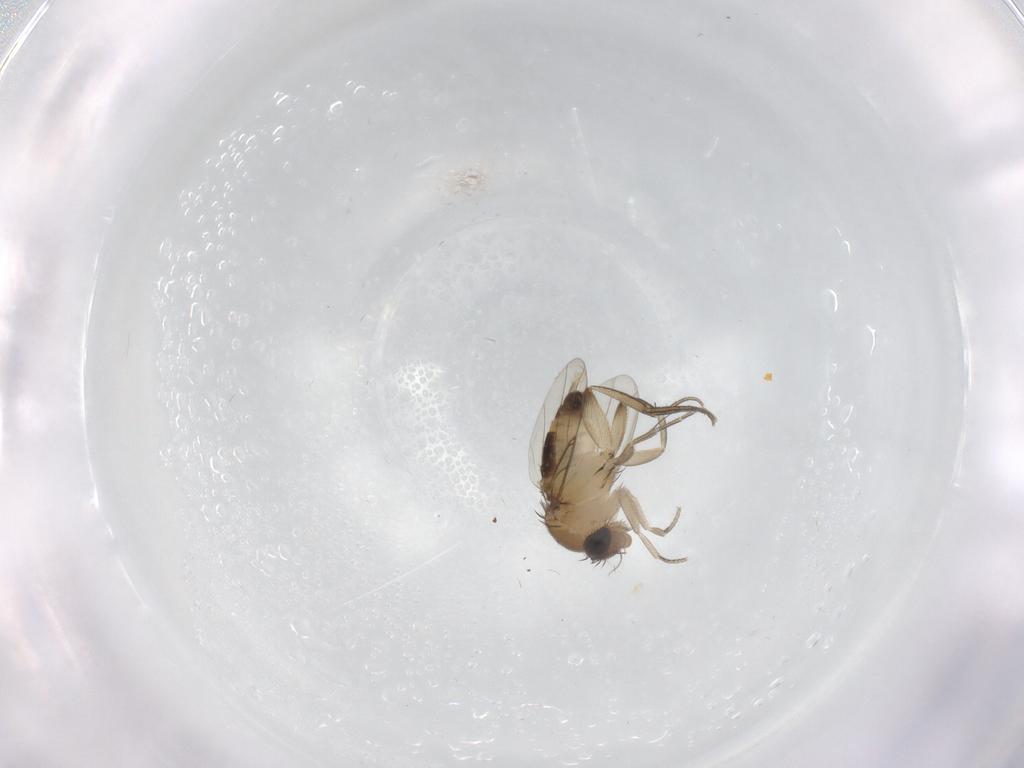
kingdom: Animalia
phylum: Arthropoda
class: Insecta
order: Diptera
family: Phoridae
